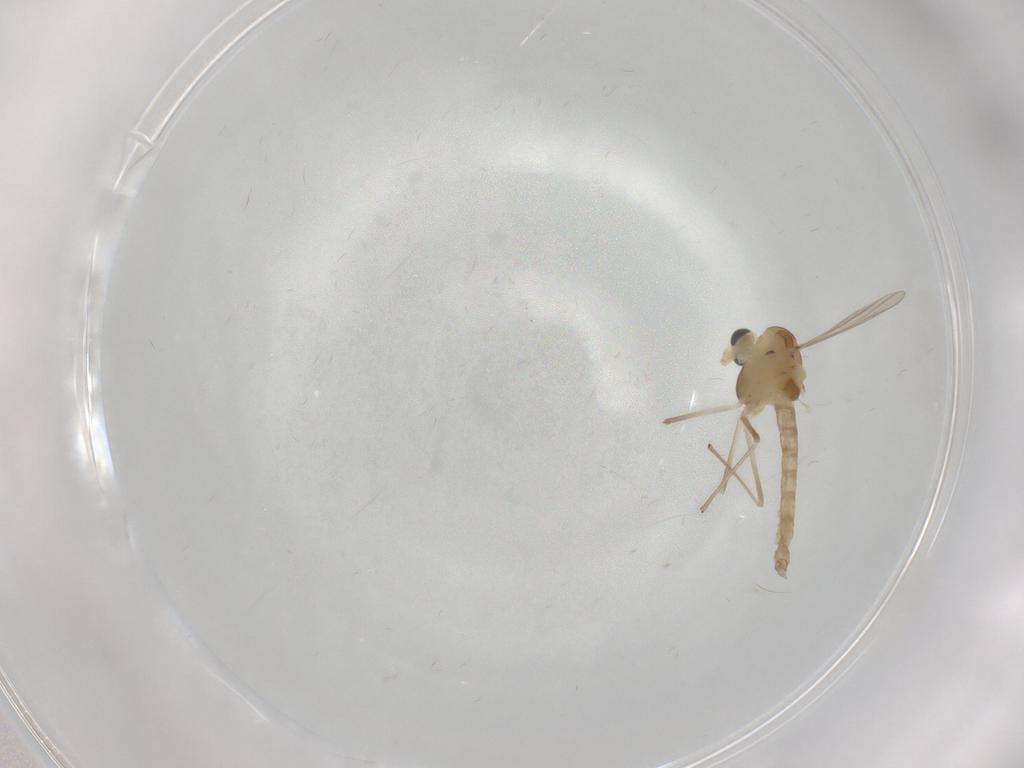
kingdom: Animalia
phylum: Arthropoda
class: Insecta
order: Diptera
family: Chironomidae
